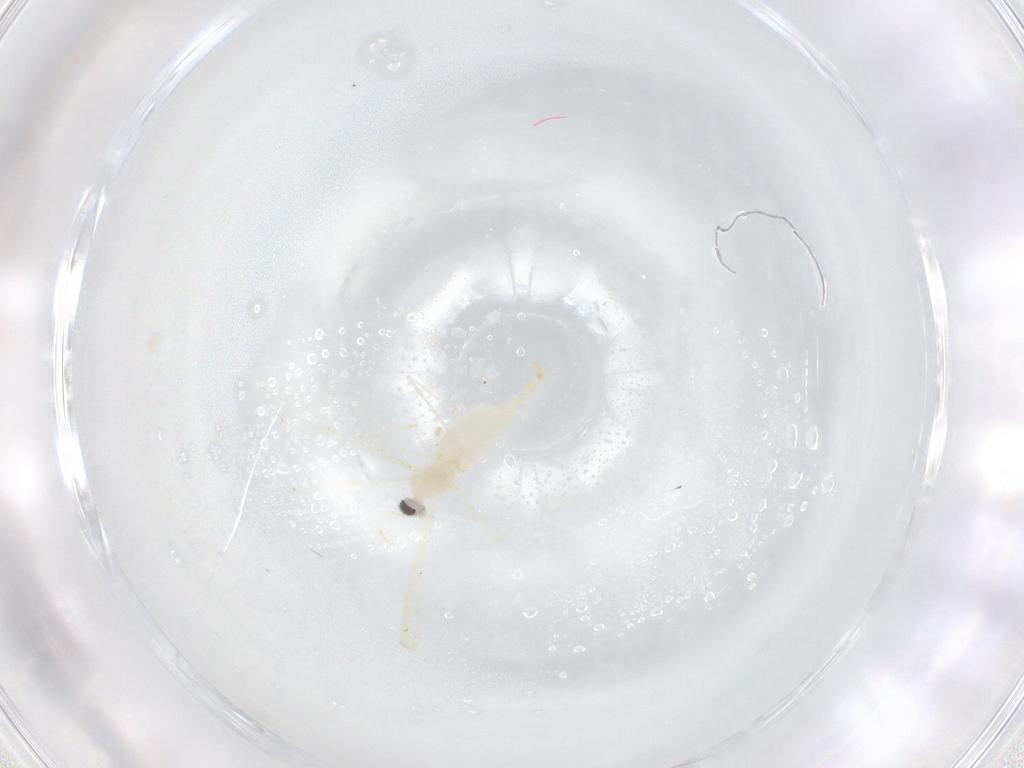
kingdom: Animalia
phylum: Arthropoda
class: Insecta
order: Diptera
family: Cecidomyiidae
